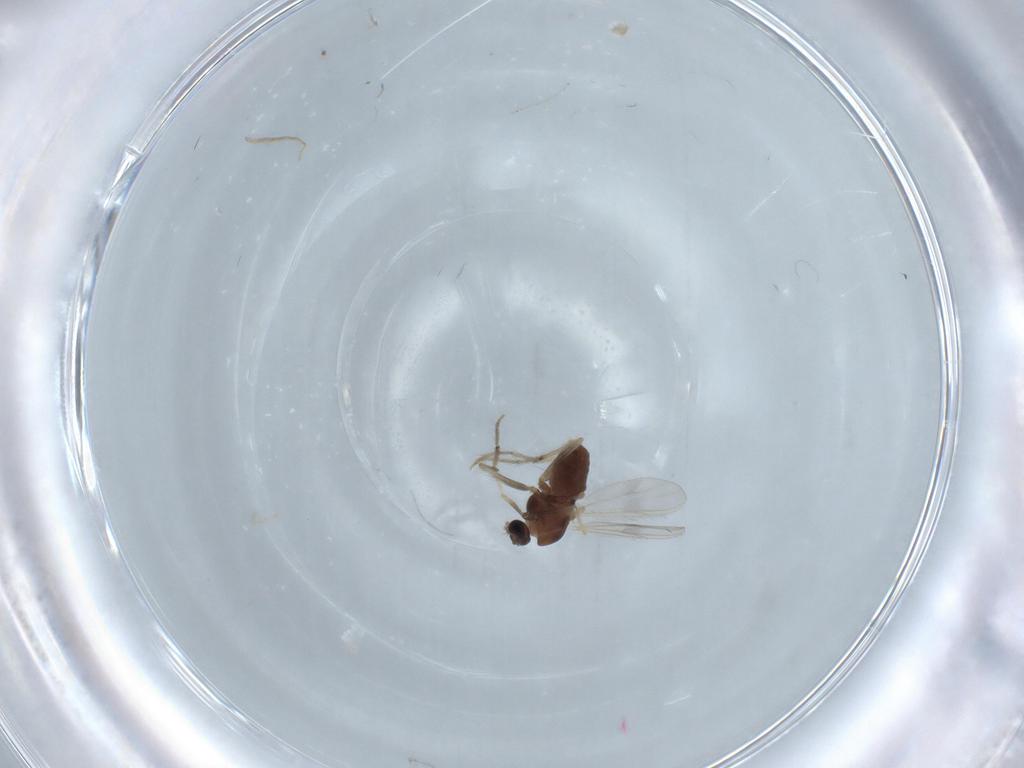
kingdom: Animalia
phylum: Arthropoda
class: Insecta
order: Diptera
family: Chironomidae
